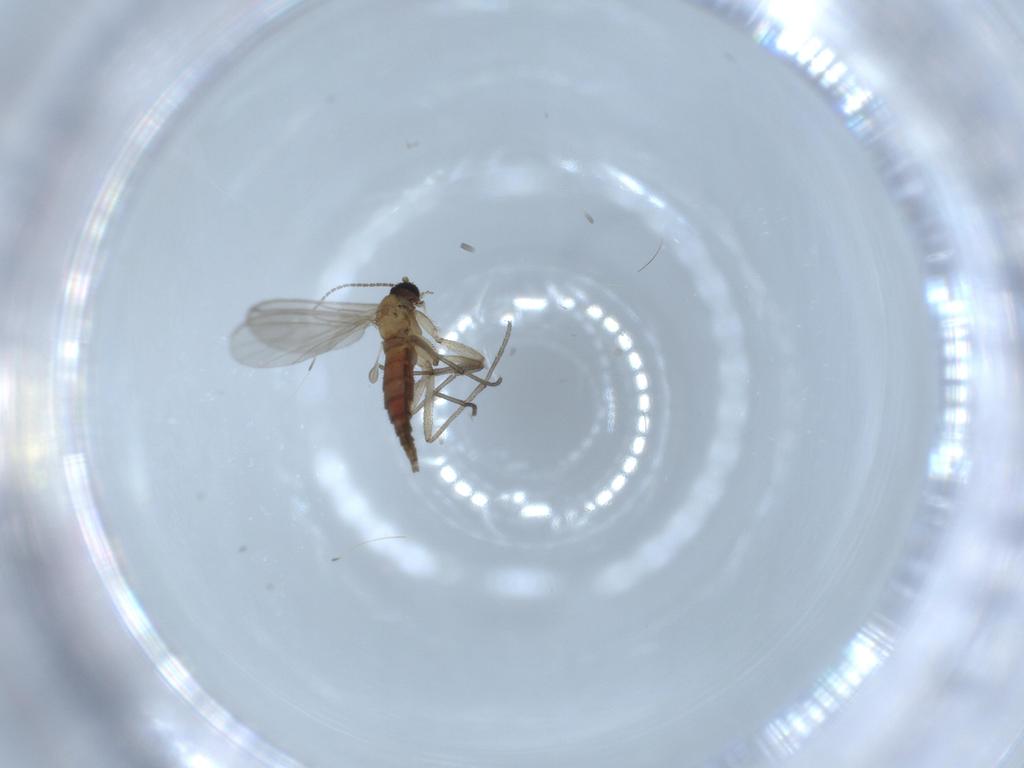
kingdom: Animalia
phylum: Arthropoda
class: Insecta
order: Diptera
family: Sciaridae
